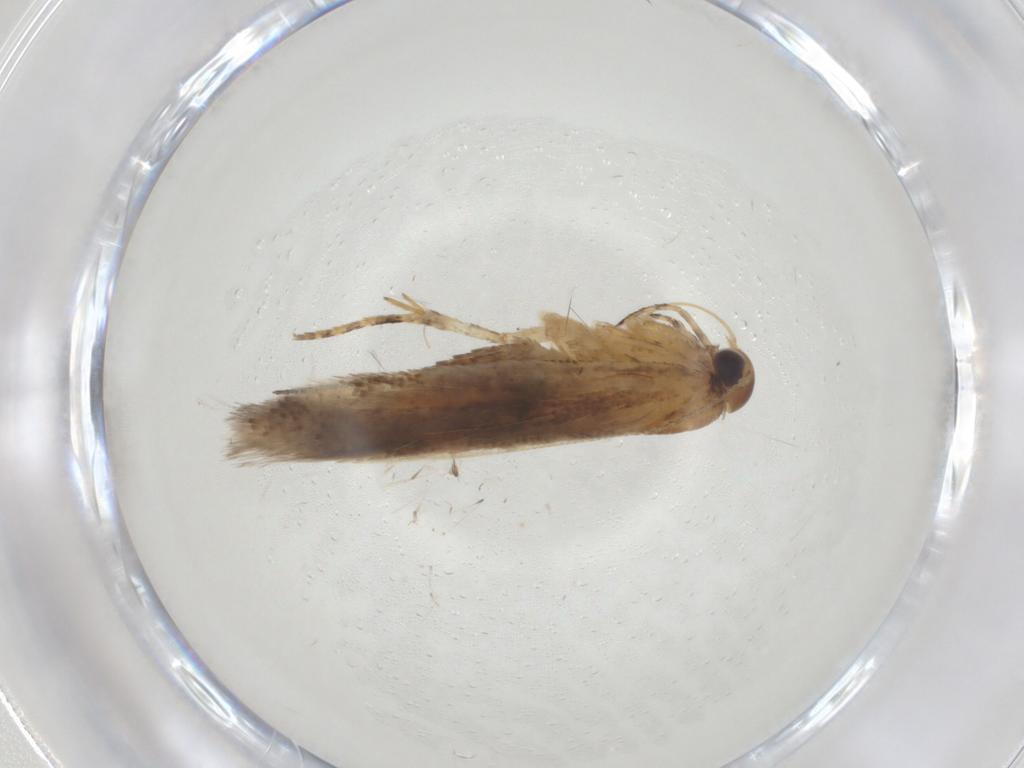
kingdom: Animalia
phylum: Arthropoda
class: Insecta
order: Lepidoptera
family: Gelechiidae
